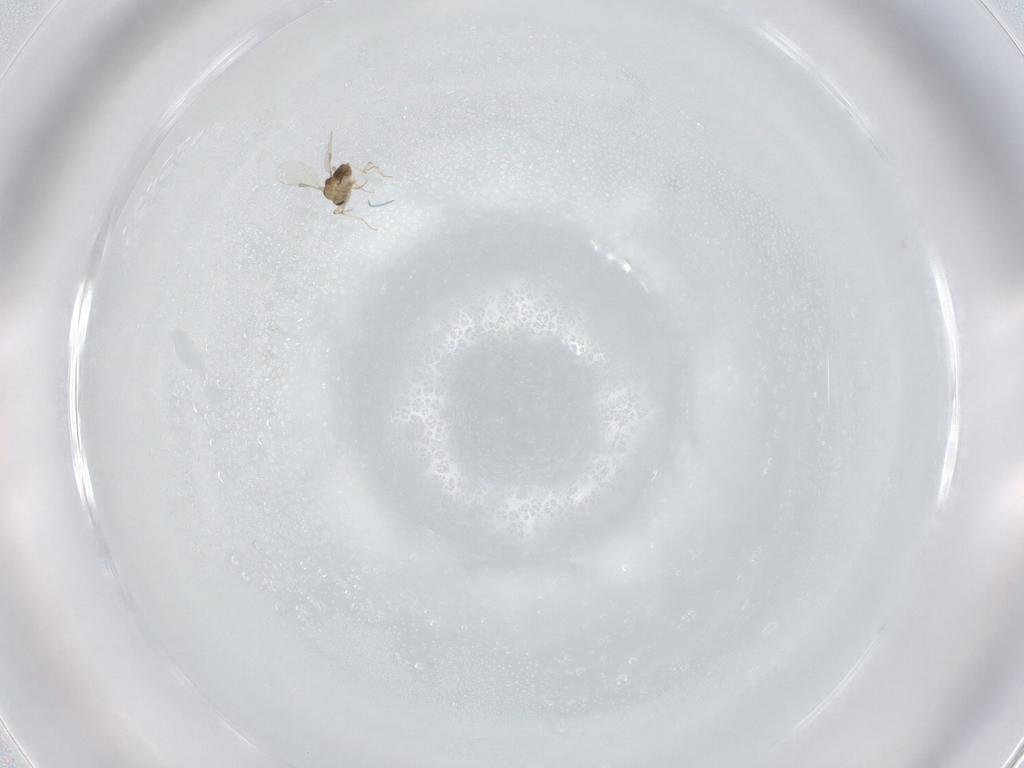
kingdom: Animalia
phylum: Arthropoda
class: Insecta
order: Diptera
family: Chironomidae
